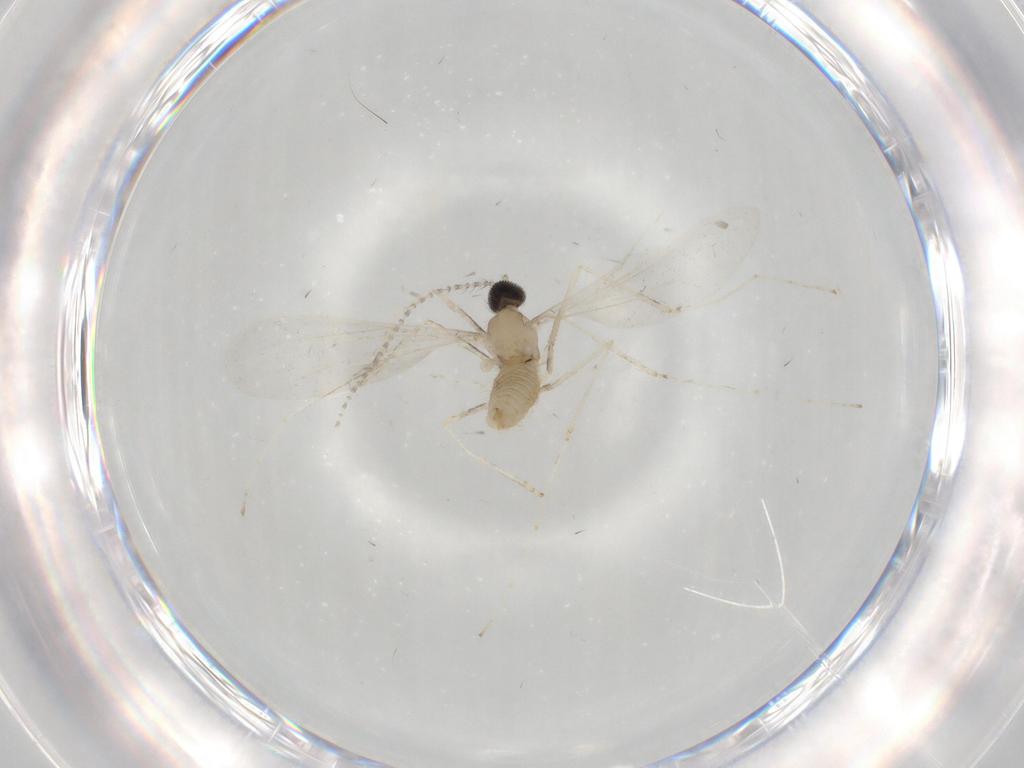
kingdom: Animalia
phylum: Arthropoda
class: Insecta
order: Diptera
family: Cecidomyiidae
